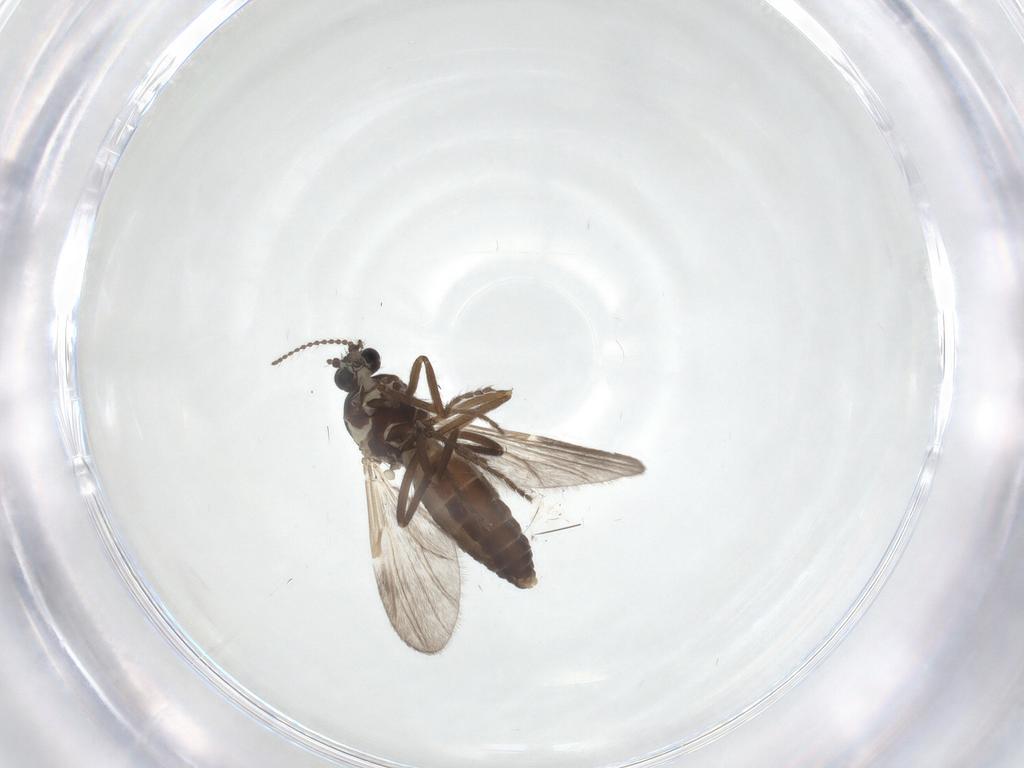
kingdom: Animalia
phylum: Arthropoda
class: Insecta
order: Diptera
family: Ceratopogonidae
